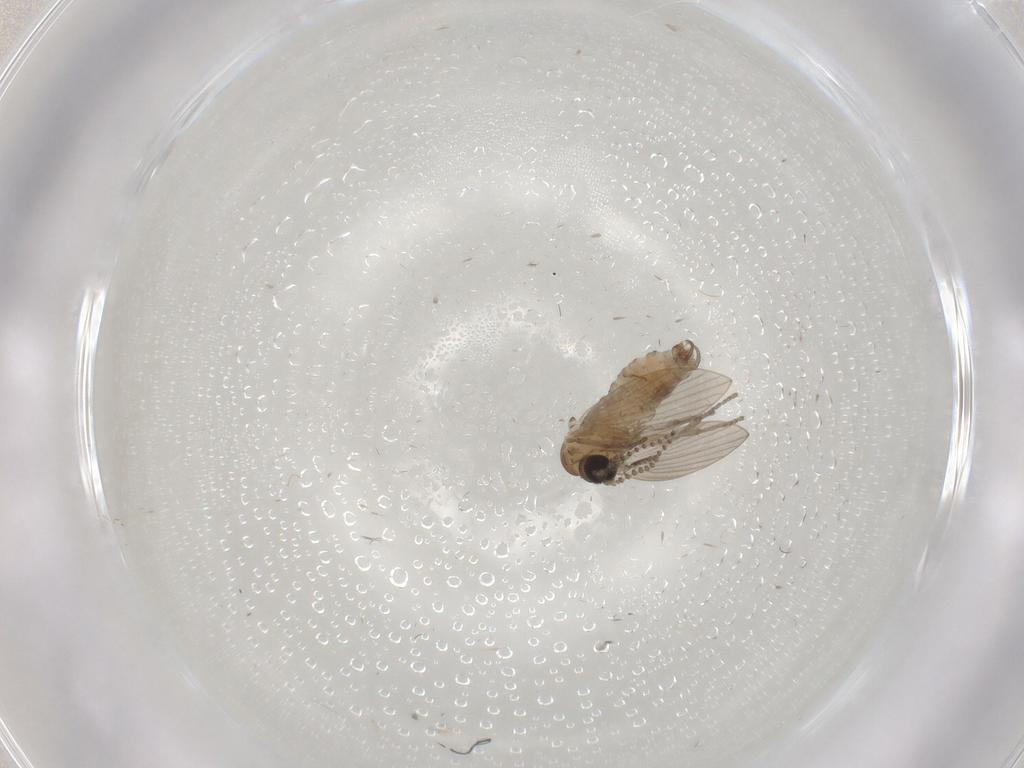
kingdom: Animalia
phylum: Arthropoda
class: Insecta
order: Diptera
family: Psychodidae
